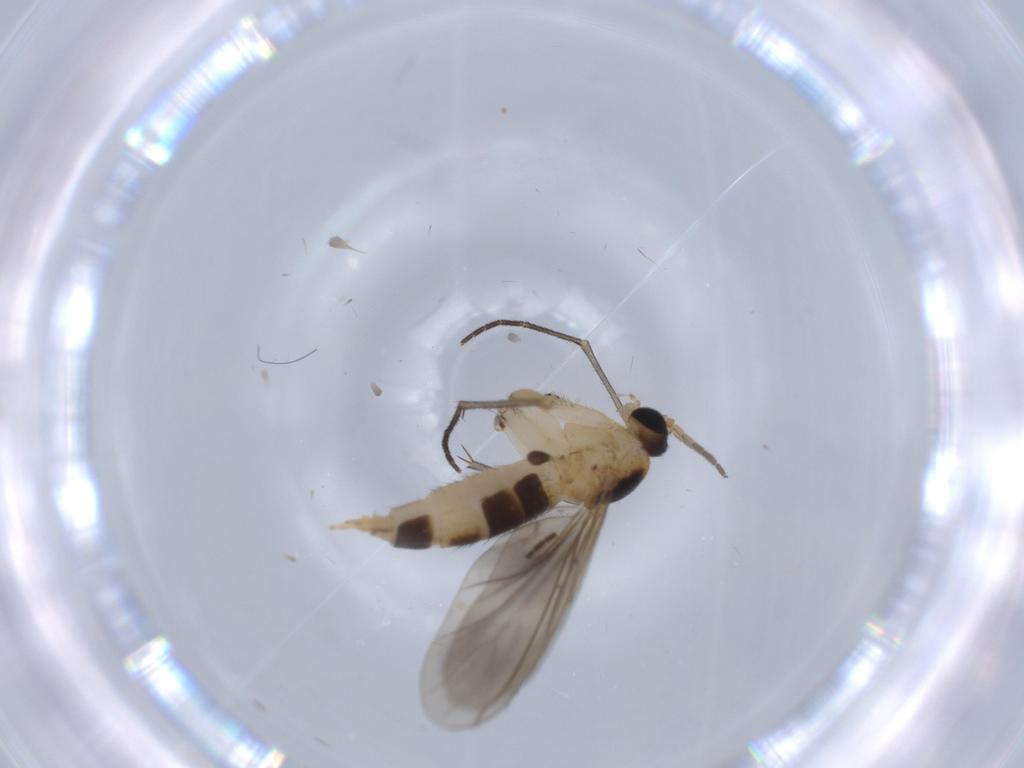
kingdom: Animalia
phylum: Arthropoda
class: Insecta
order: Diptera
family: Sciaridae
